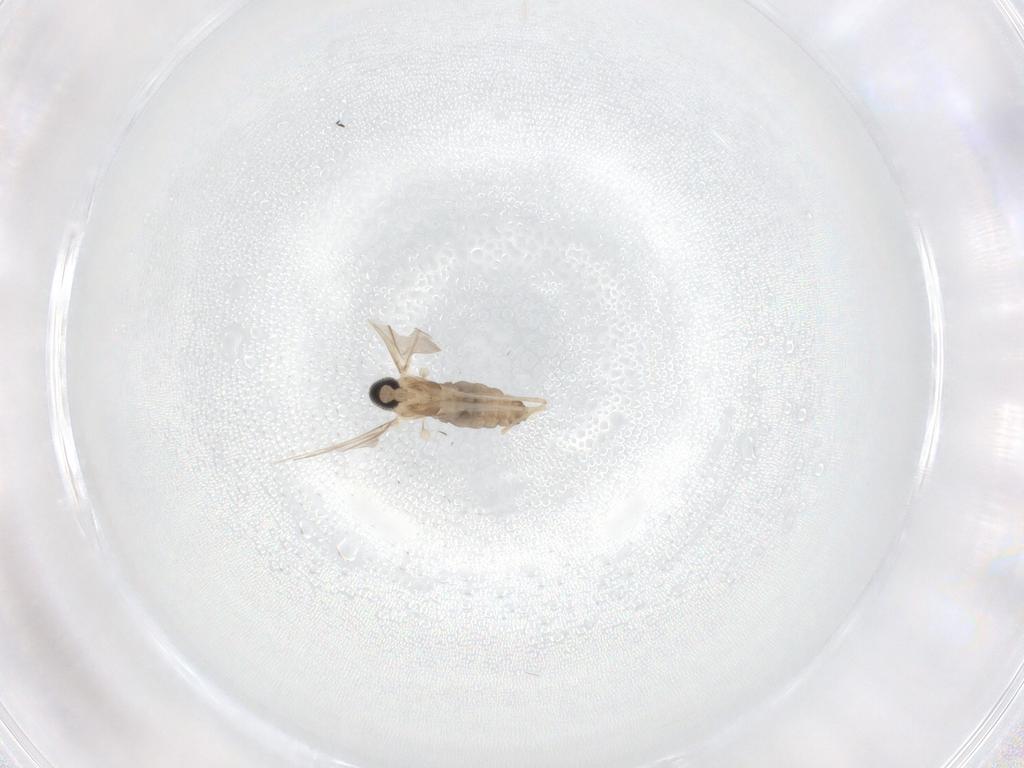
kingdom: Animalia
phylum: Arthropoda
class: Insecta
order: Diptera
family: Cecidomyiidae
